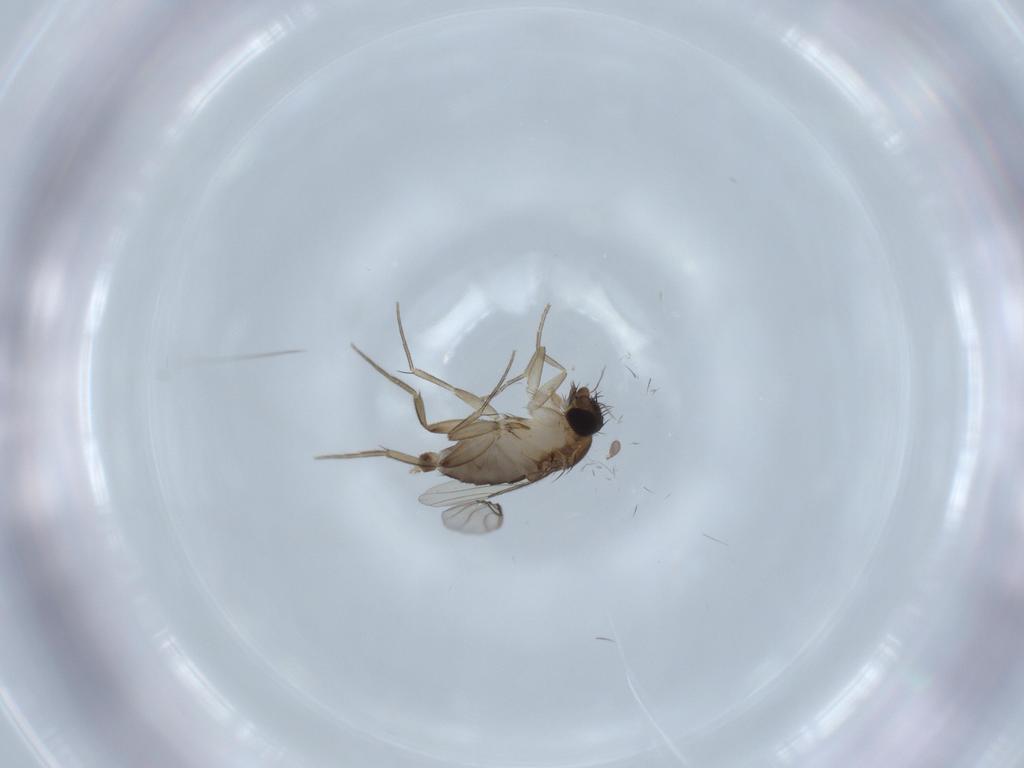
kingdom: Animalia
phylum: Arthropoda
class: Insecta
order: Diptera
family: Phoridae
